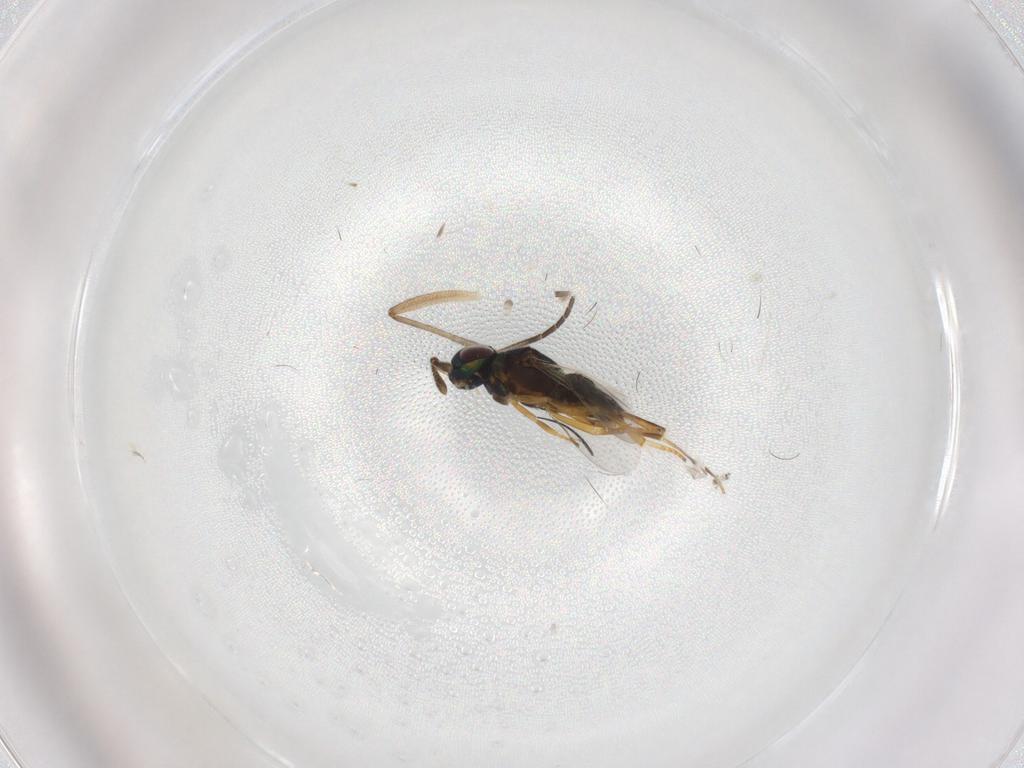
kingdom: Animalia
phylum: Arthropoda
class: Insecta
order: Hymenoptera
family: Encyrtidae
